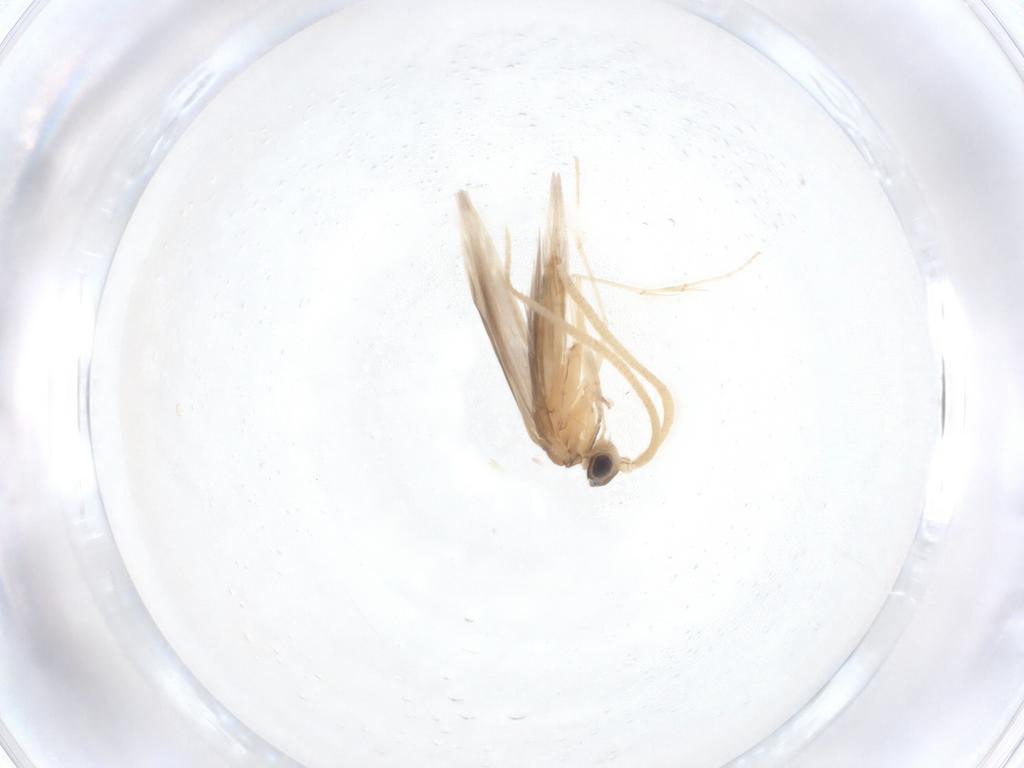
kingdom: Animalia
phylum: Arthropoda
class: Insecta
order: Trichoptera
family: Hydroptilidae
